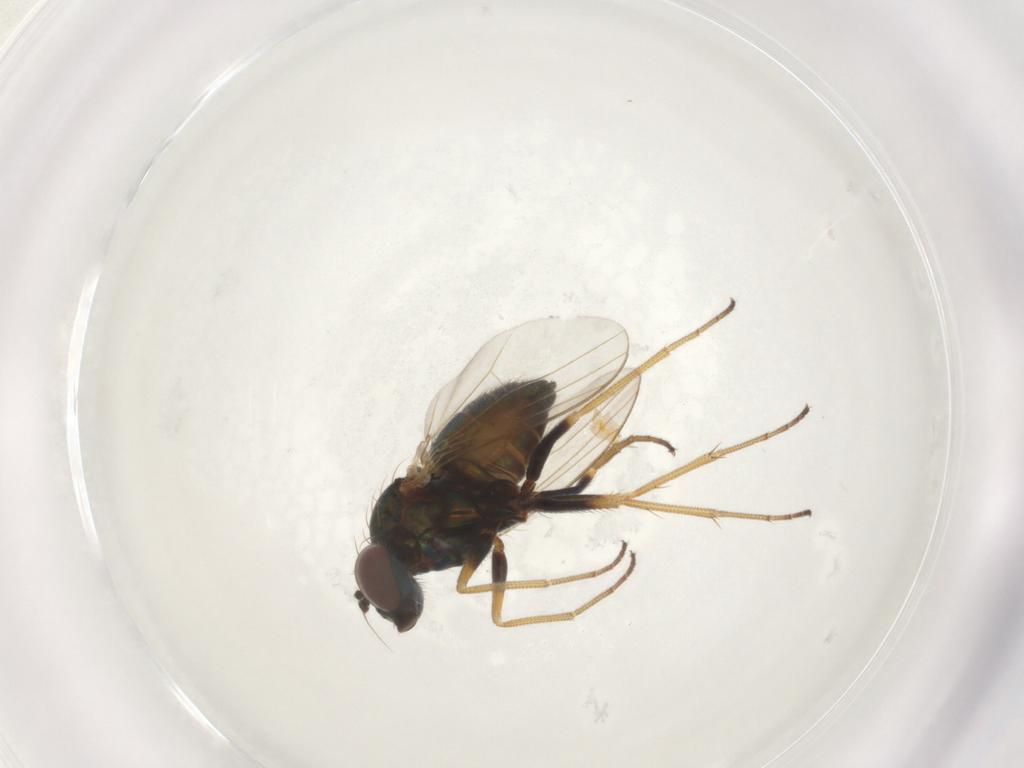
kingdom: Animalia
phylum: Arthropoda
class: Insecta
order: Diptera
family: Dolichopodidae
